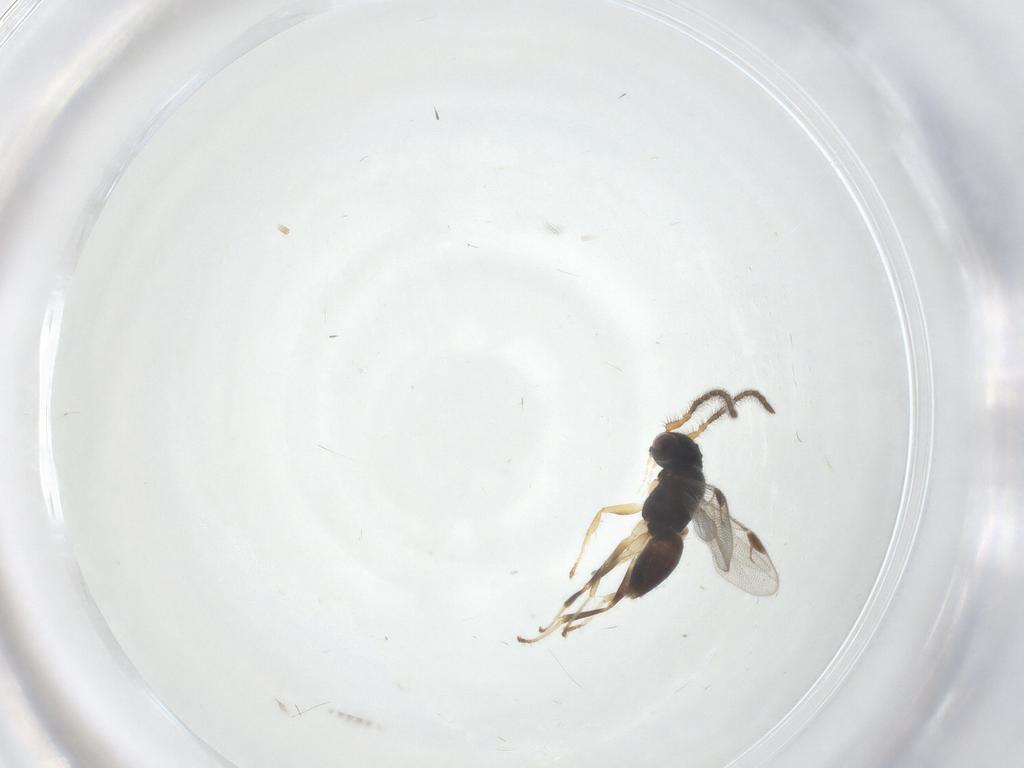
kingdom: Animalia
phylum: Arthropoda
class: Insecta
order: Hymenoptera
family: Dryinidae
